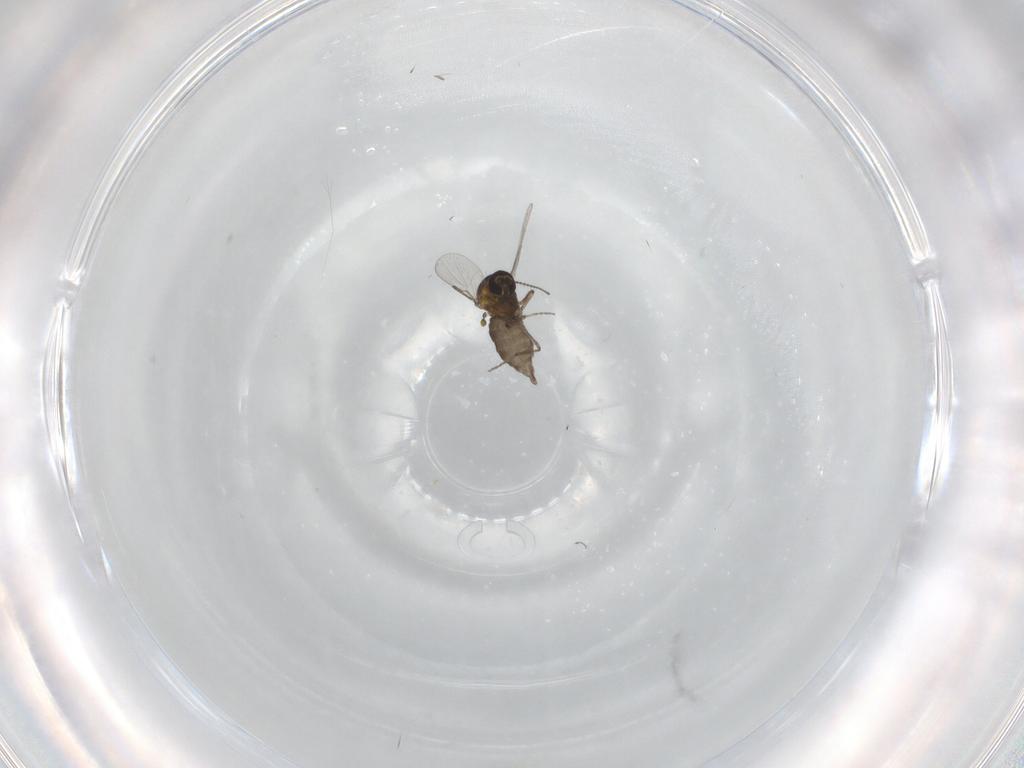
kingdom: Animalia
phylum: Arthropoda
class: Insecta
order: Diptera
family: Ceratopogonidae
